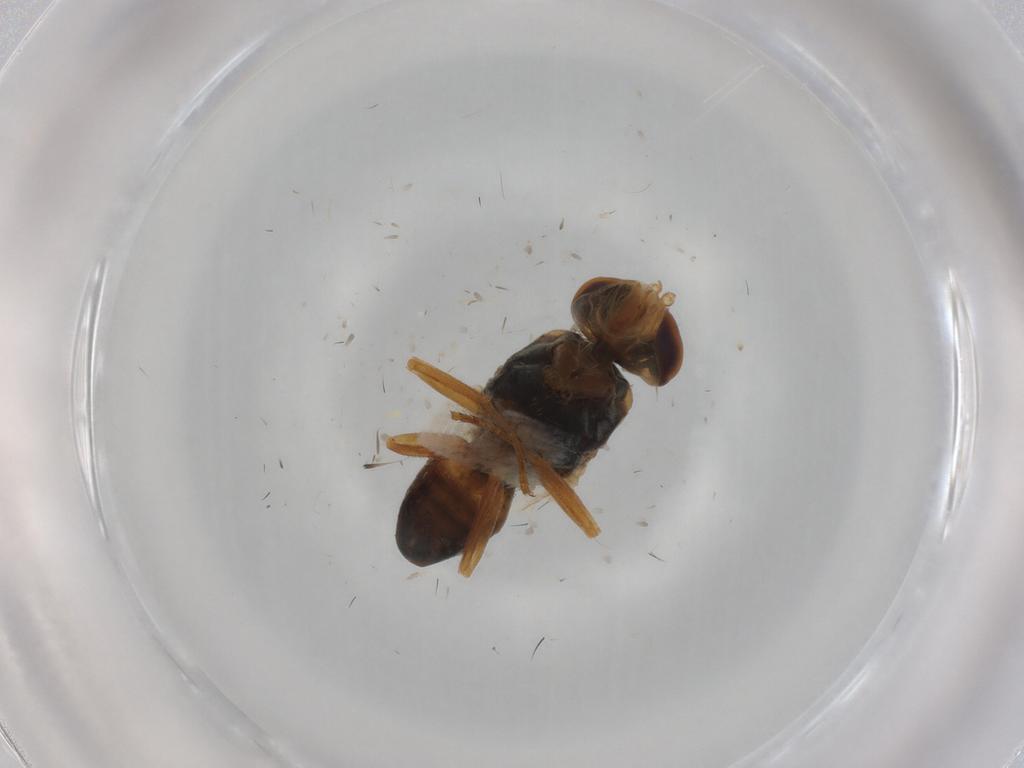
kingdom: Animalia
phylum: Arthropoda
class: Insecta
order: Diptera
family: Tephritidae
